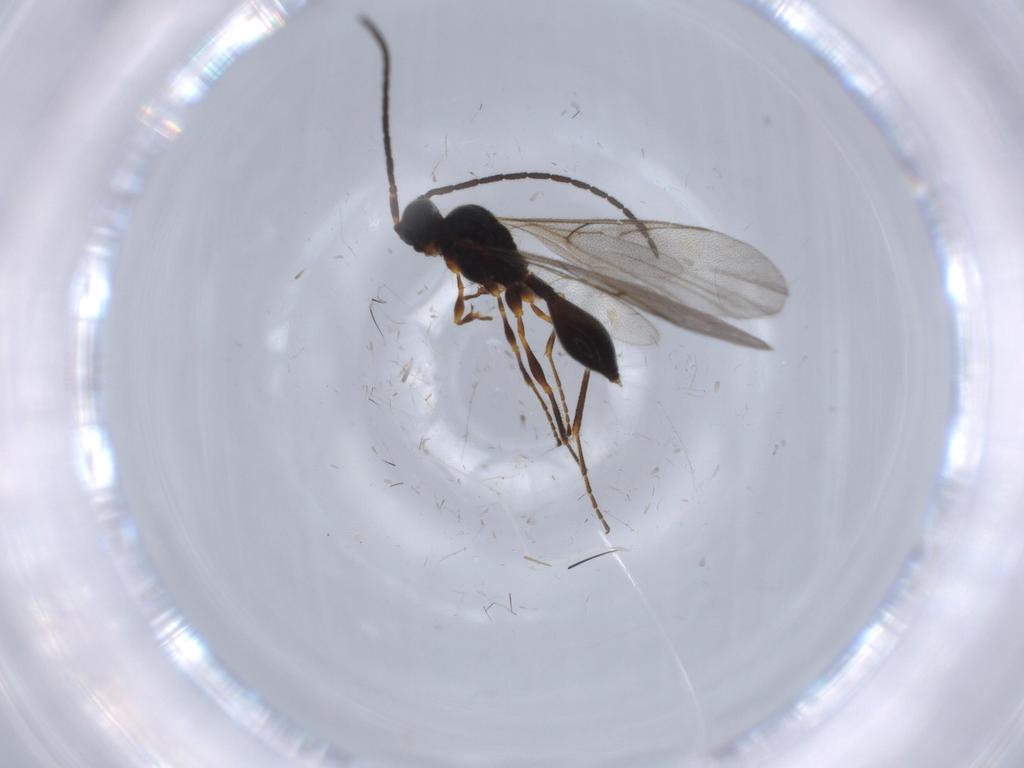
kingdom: Animalia
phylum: Arthropoda
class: Insecta
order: Hymenoptera
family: Ichneumonidae
